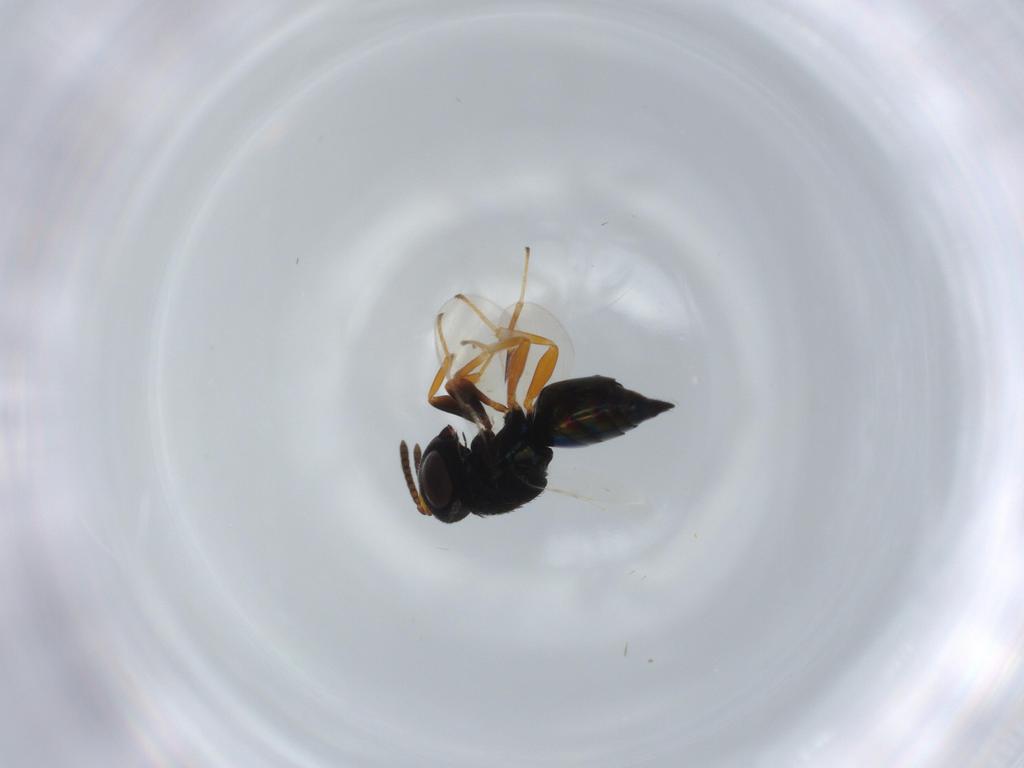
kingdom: Animalia
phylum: Arthropoda
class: Insecta
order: Hymenoptera
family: Pteromalidae
